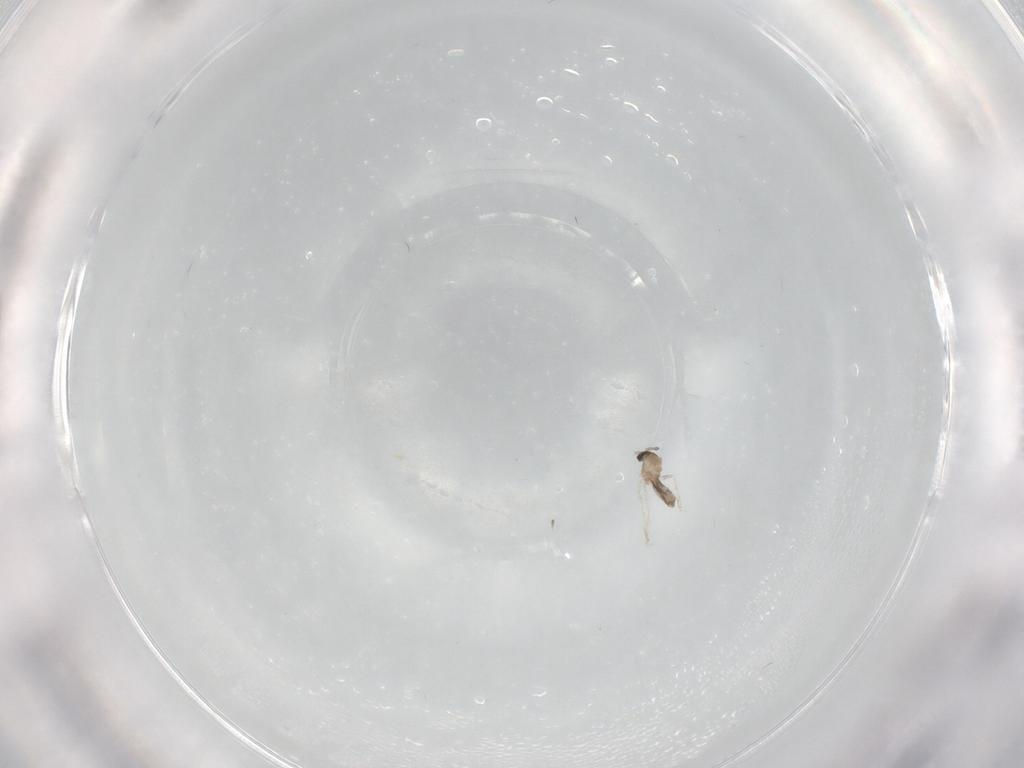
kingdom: Animalia
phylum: Arthropoda
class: Insecta
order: Diptera
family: Cecidomyiidae
